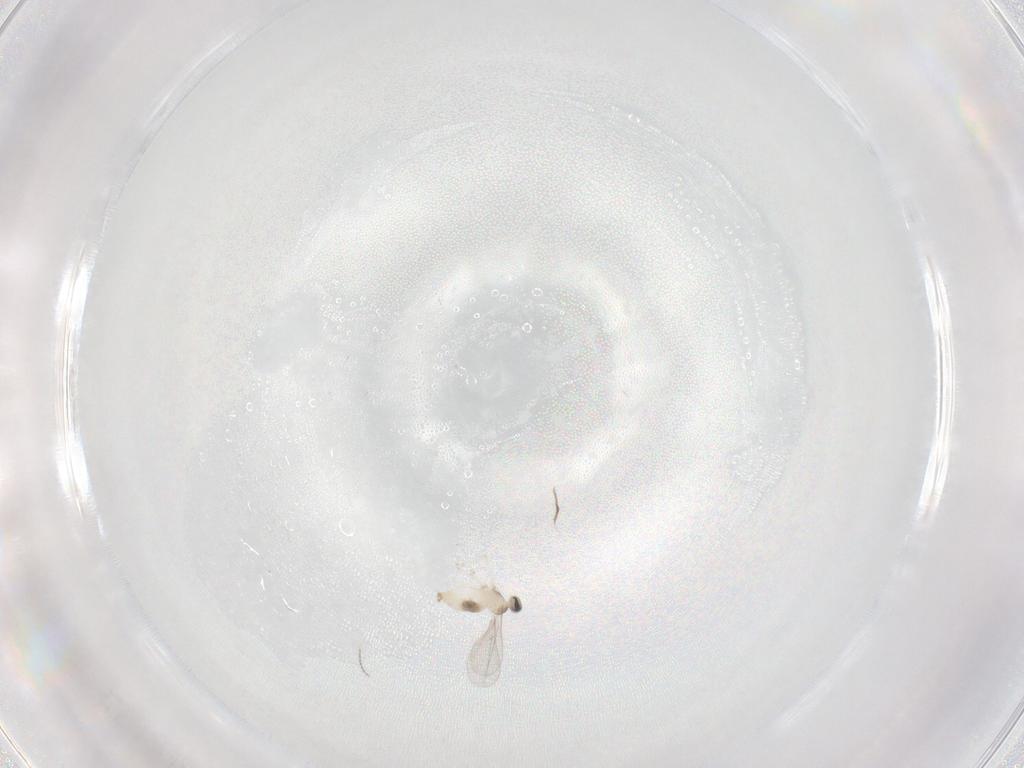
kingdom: Animalia
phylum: Arthropoda
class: Insecta
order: Diptera
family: Cecidomyiidae
